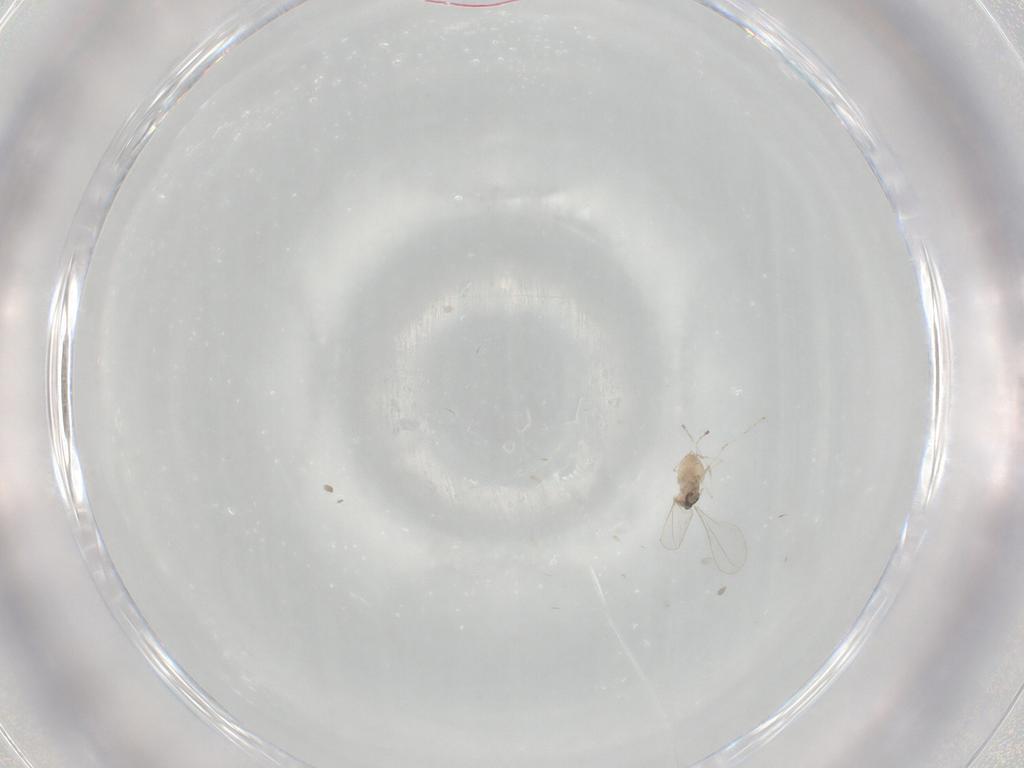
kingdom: Animalia
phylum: Arthropoda
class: Insecta
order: Diptera
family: Cecidomyiidae
